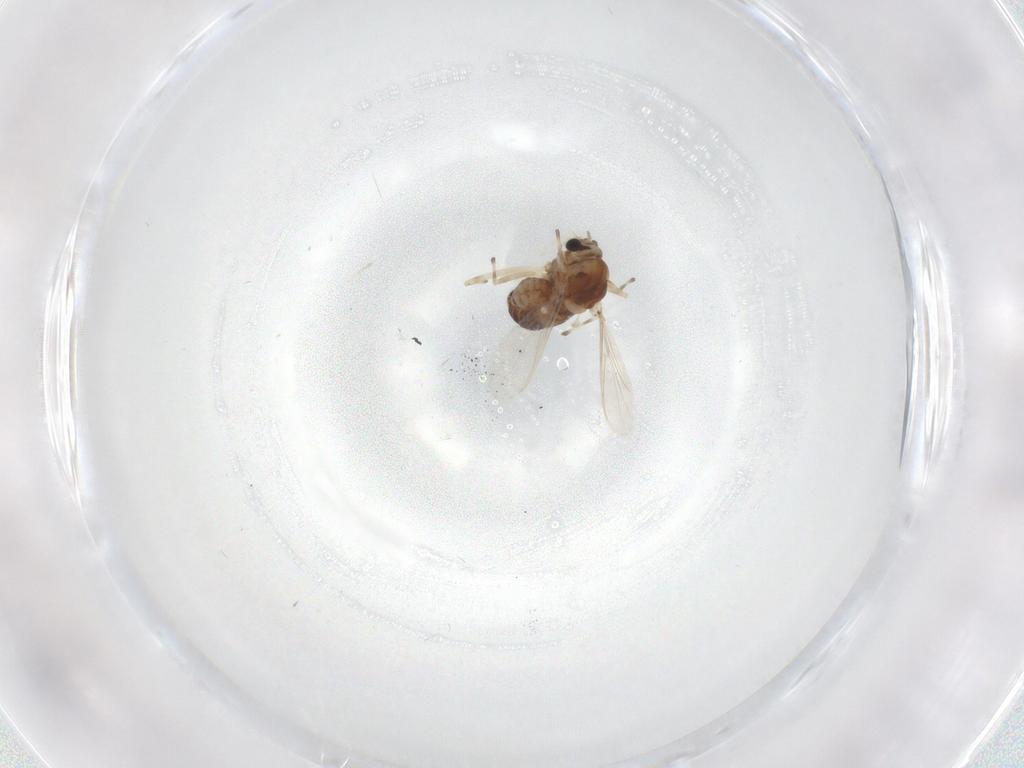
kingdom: Animalia
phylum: Arthropoda
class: Insecta
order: Diptera
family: Chironomidae
